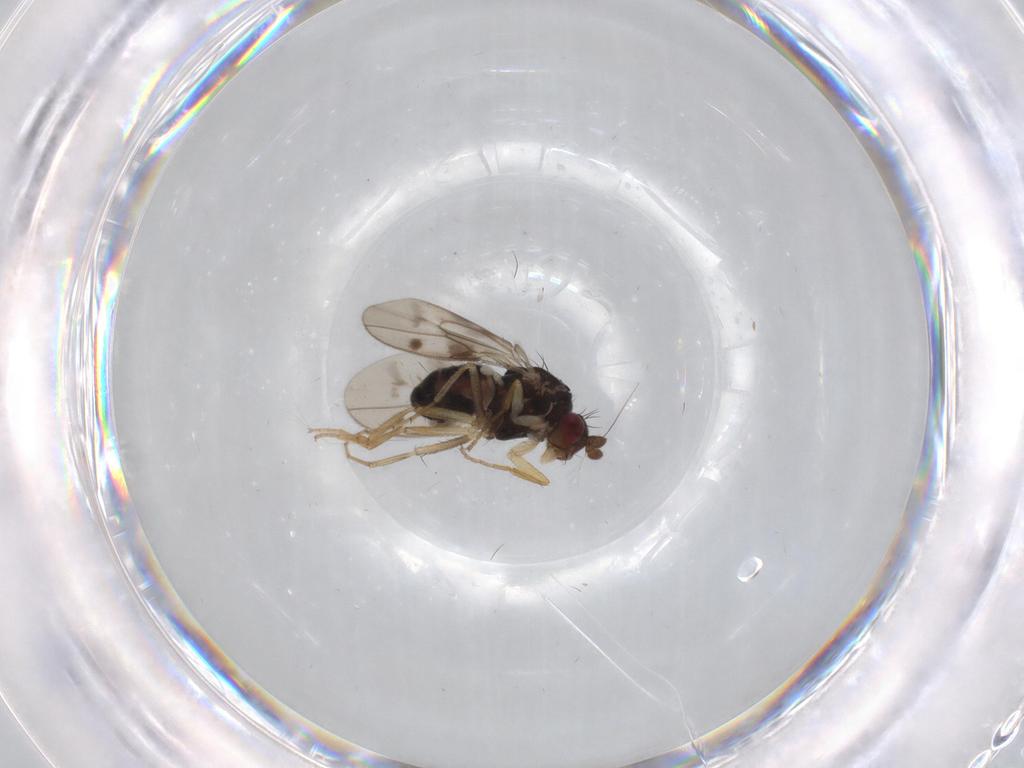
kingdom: Animalia
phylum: Arthropoda
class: Insecta
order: Diptera
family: Sphaeroceridae
